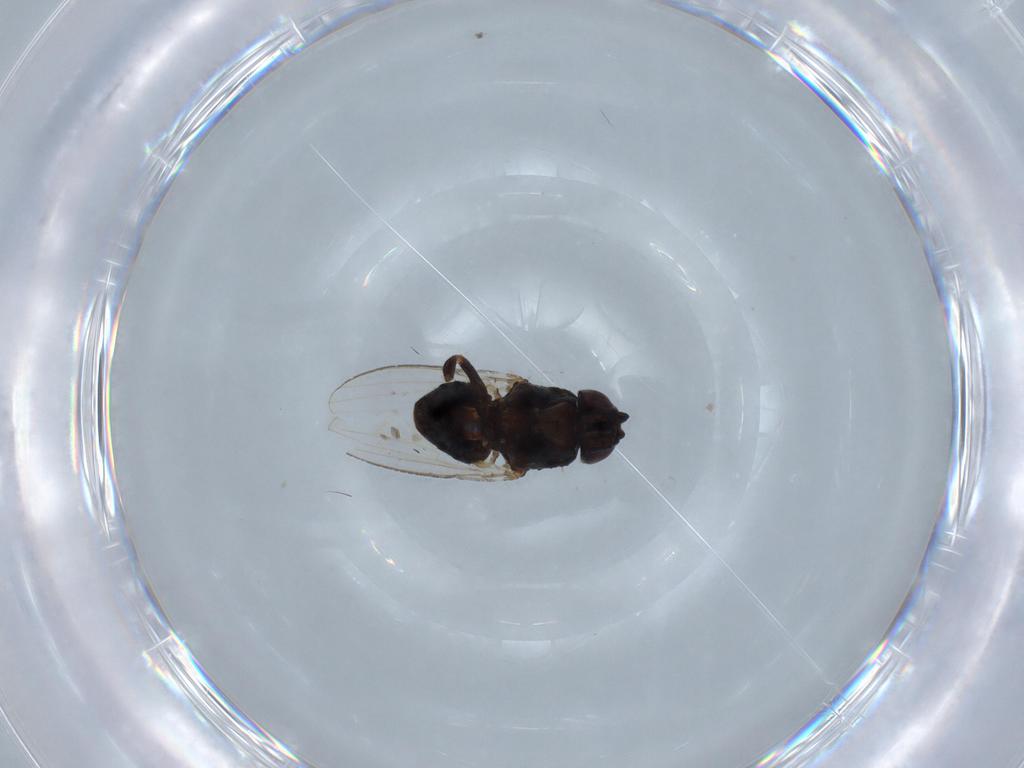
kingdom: Animalia
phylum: Arthropoda
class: Insecta
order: Diptera
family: Milichiidae
